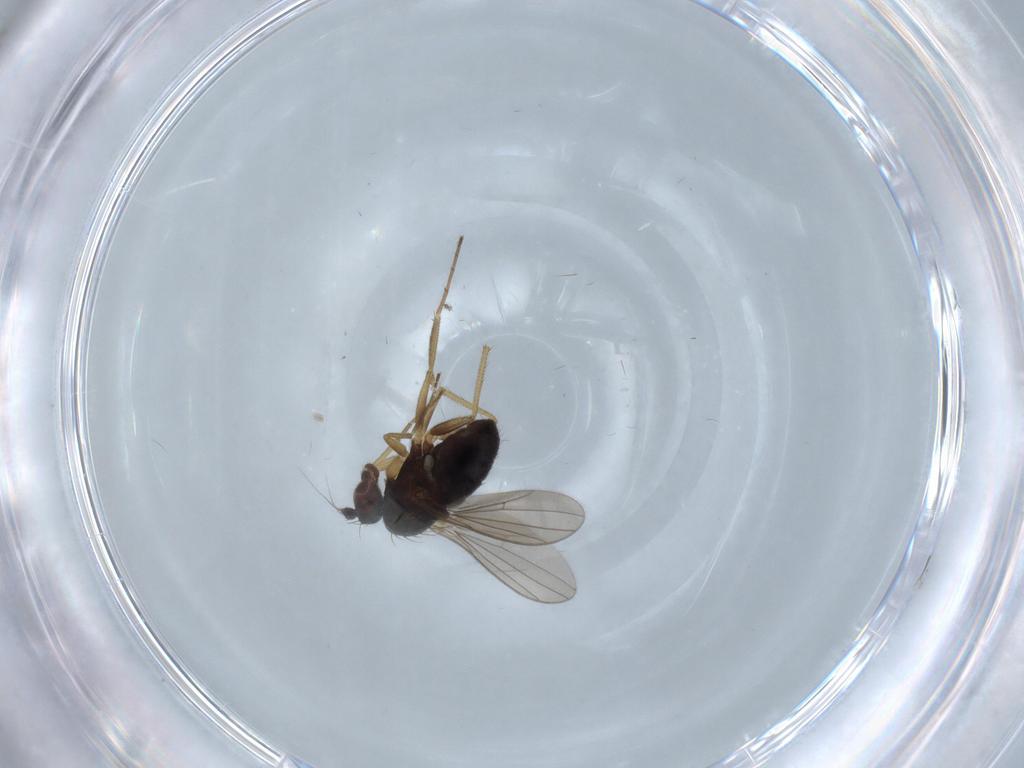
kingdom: Animalia
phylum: Arthropoda
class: Insecta
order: Diptera
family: Dolichopodidae
